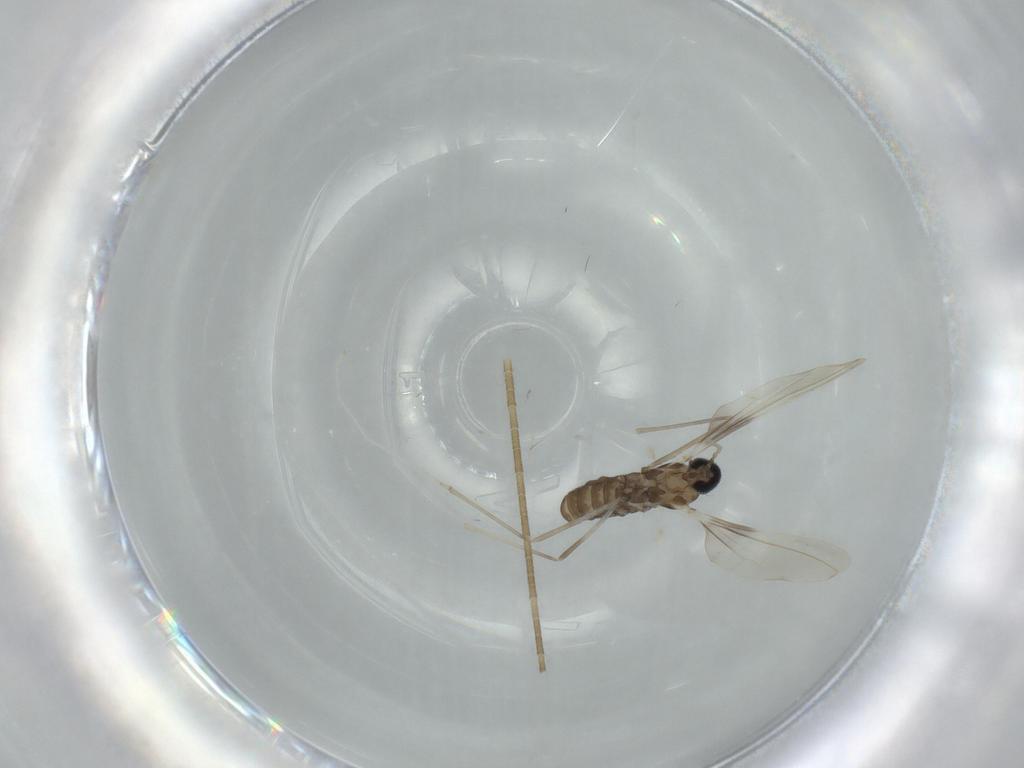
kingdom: Animalia
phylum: Arthropoda
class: Insecta
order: Diptera
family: Cecidomyiidae
